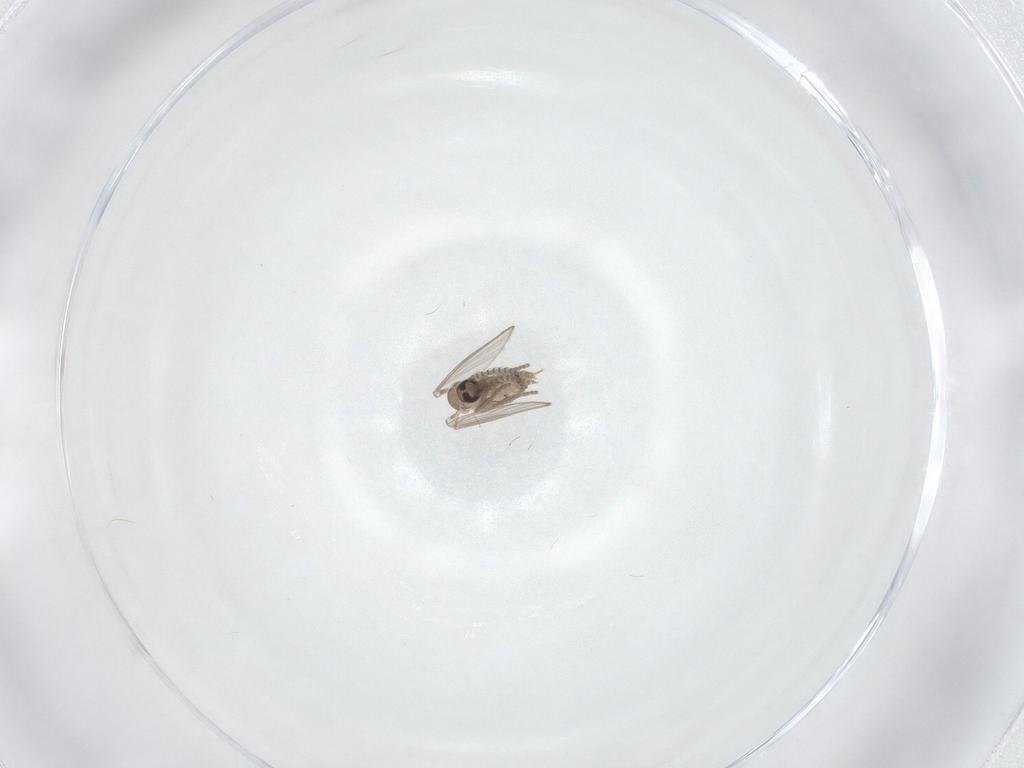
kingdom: Animalia
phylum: Arthropoda
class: Insecta
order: Diptera
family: Psychodidae
